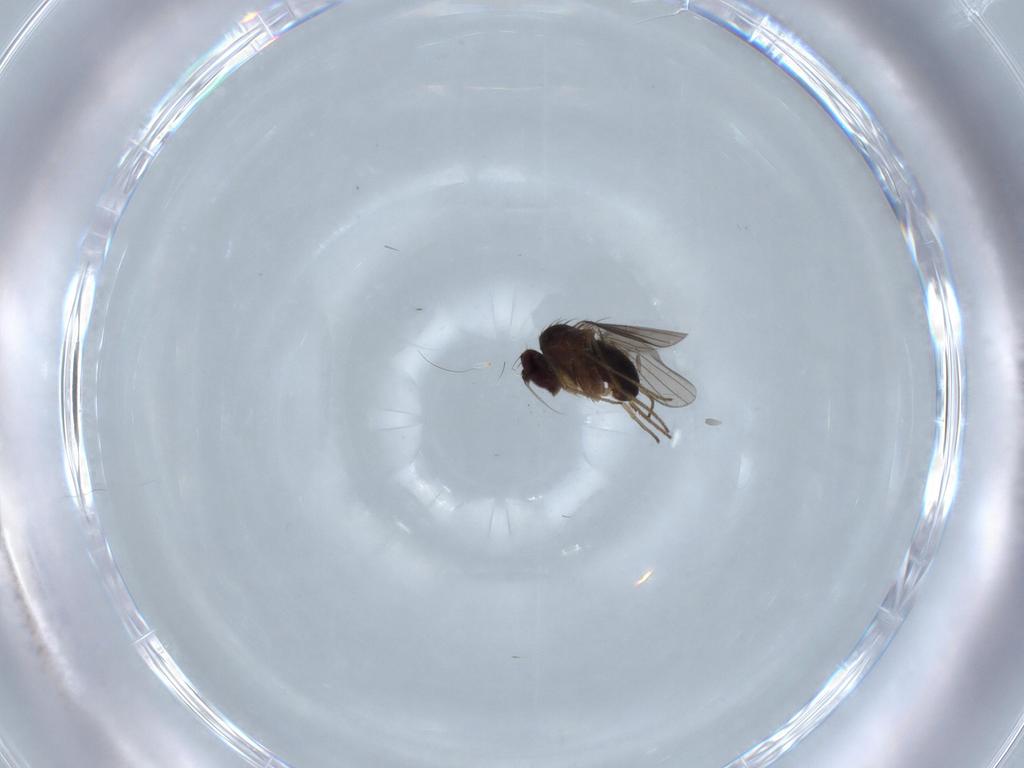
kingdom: Animalia
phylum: Arthropoda
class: Insecta
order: Diptera
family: Dolichopodidae
